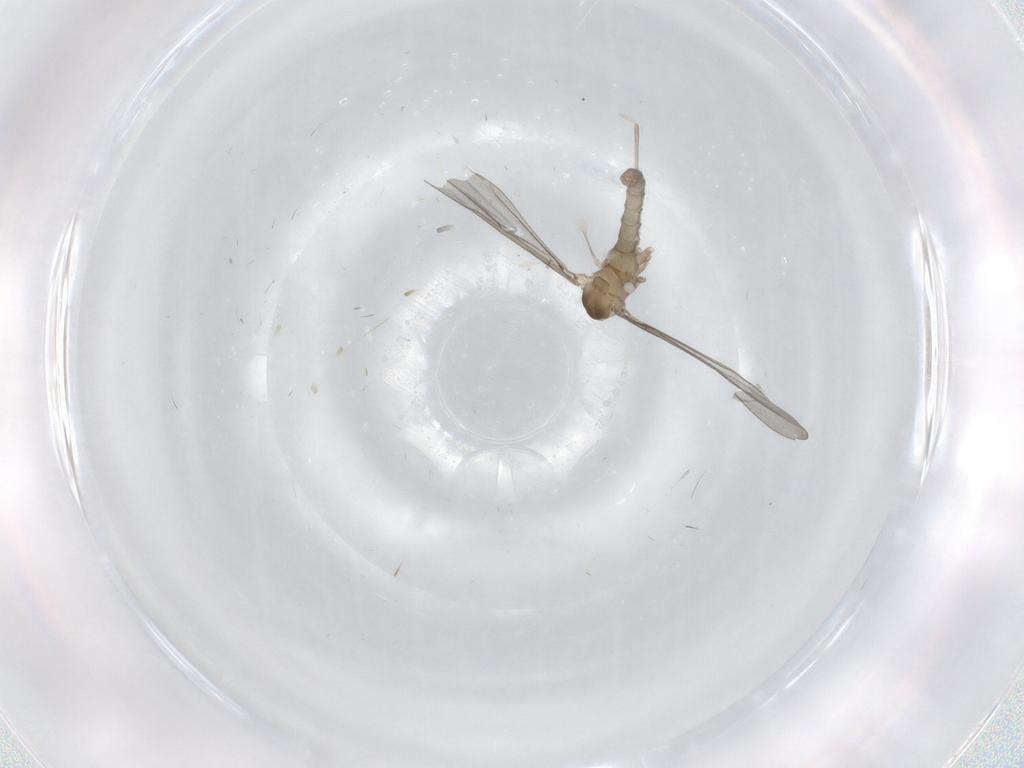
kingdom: Animalia
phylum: Arthropoda
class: Insecta
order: Diptera
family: Cecidomyiidae
